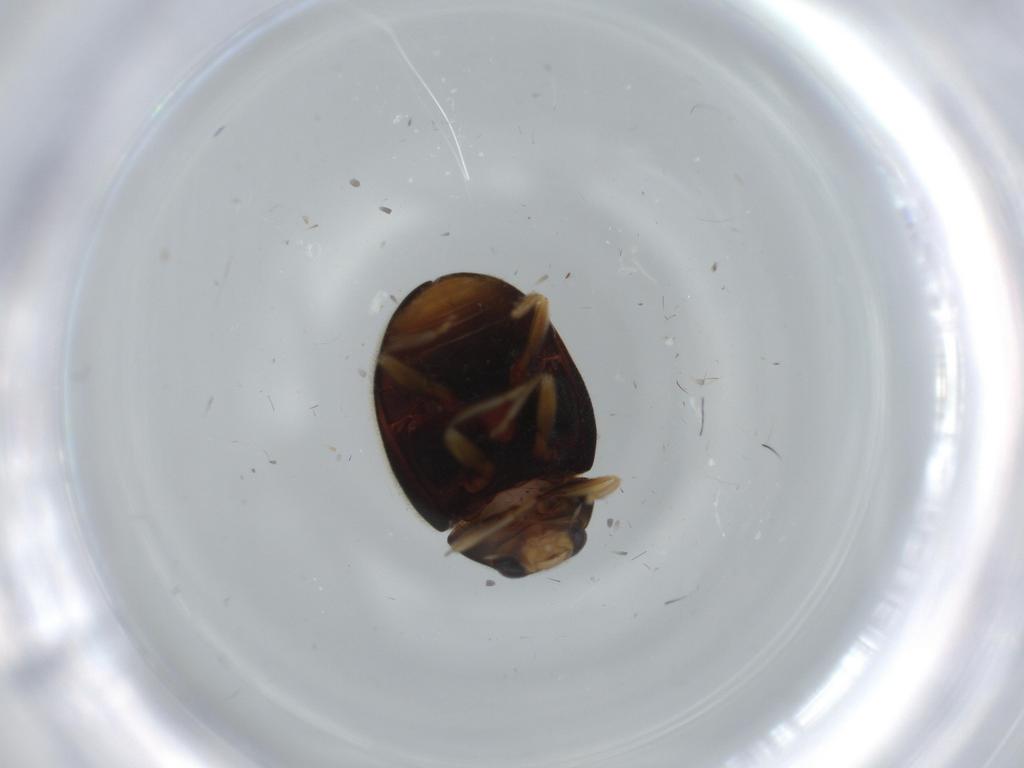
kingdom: Animalia
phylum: Arthropoda
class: Insecta
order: Coleoptera
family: Coccinellidae
